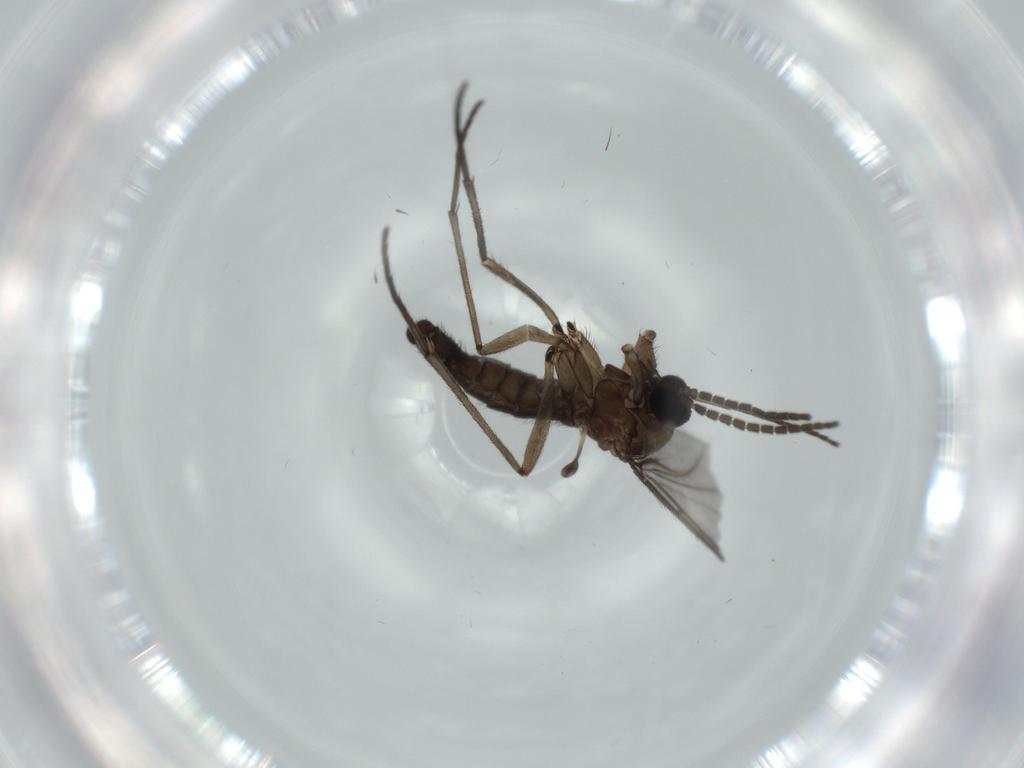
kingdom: Animalia
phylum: Arthropoda
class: Insecta
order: Diptera
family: Sciaridae
